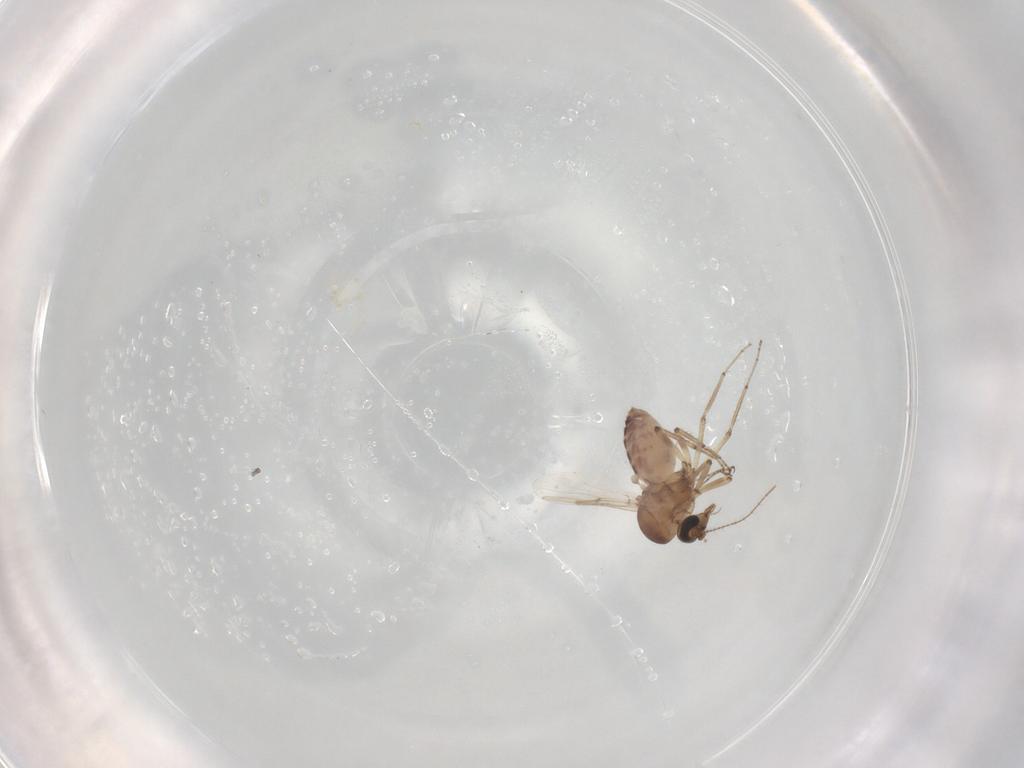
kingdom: Animalia
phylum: Arthropoda
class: Insecta
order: Diptera
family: Ceratopogonidae
